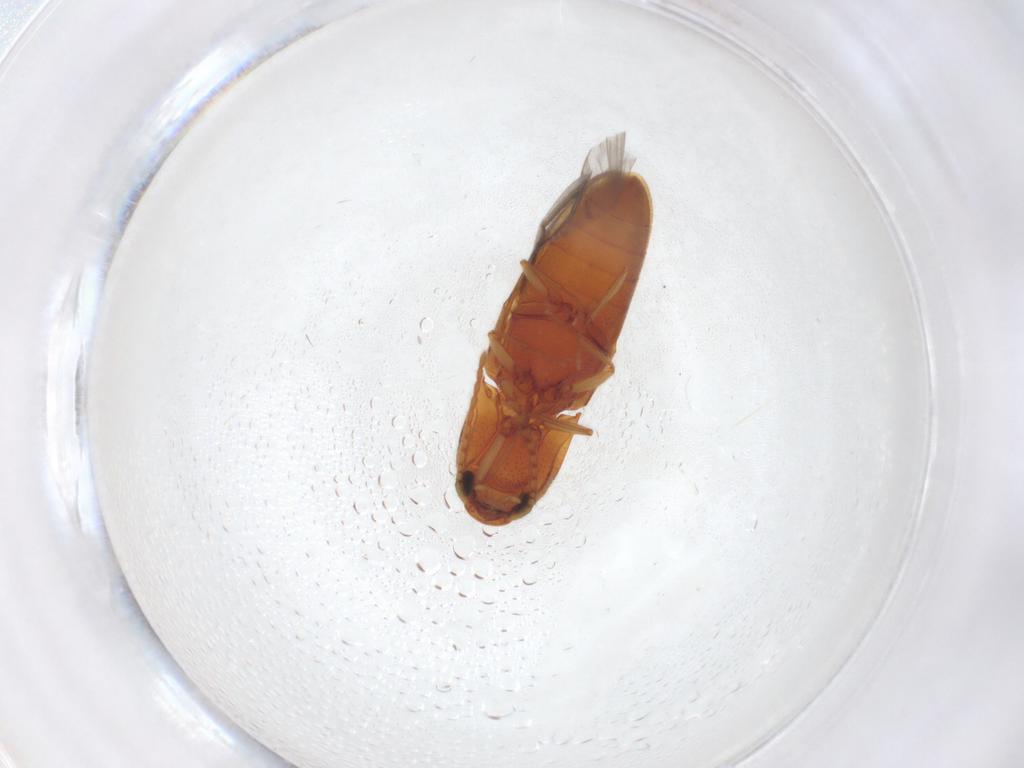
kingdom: Animalia
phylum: Arthropoda
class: Insecta
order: Coleoptera
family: Elateridae
